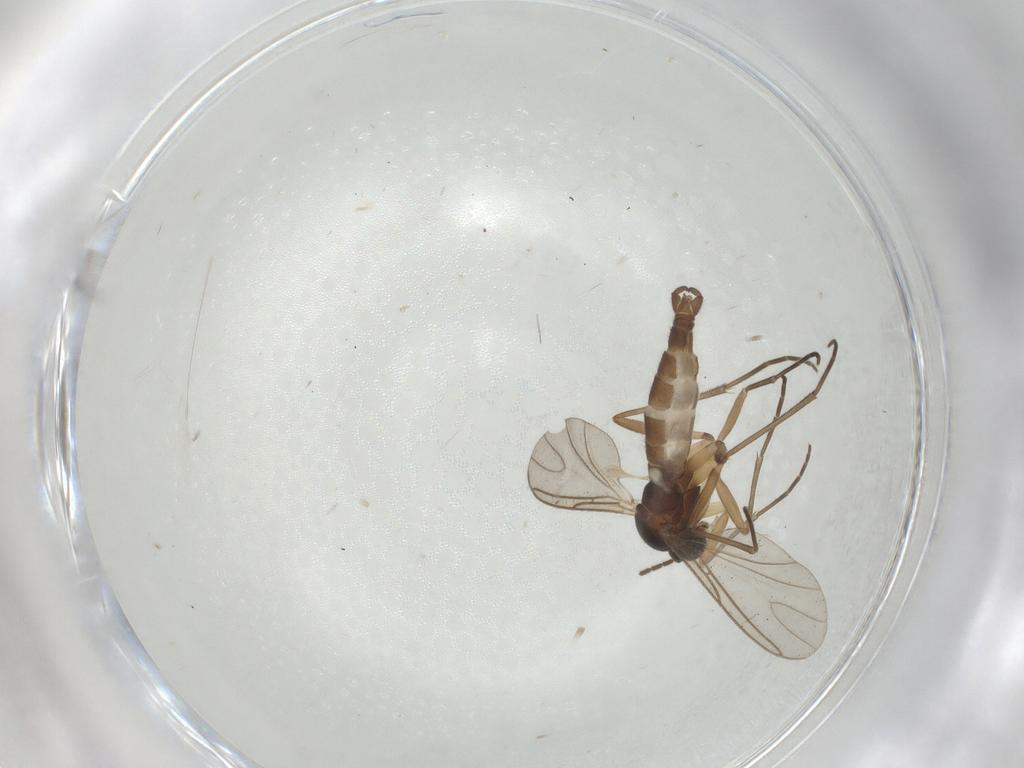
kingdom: Animalia
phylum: Arthropoda
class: Insecta
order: Diptera
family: Sciaridae
